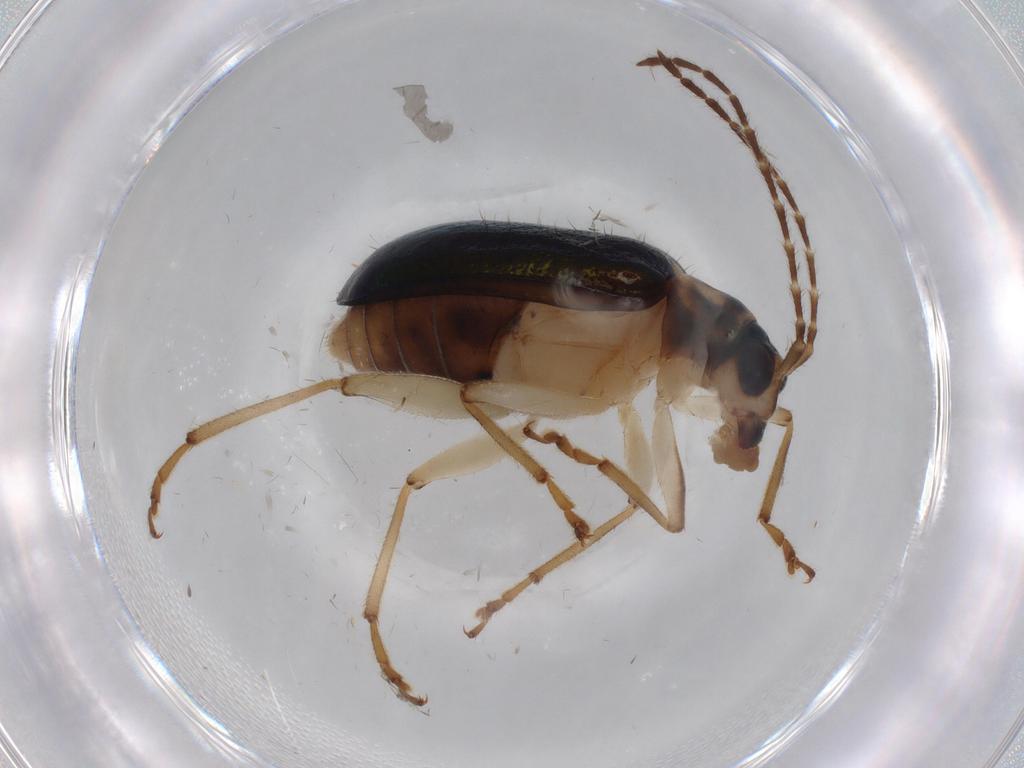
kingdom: Animalia
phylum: Arthropoda
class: Insecta
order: Coleoptera
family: Chrysomelidae
